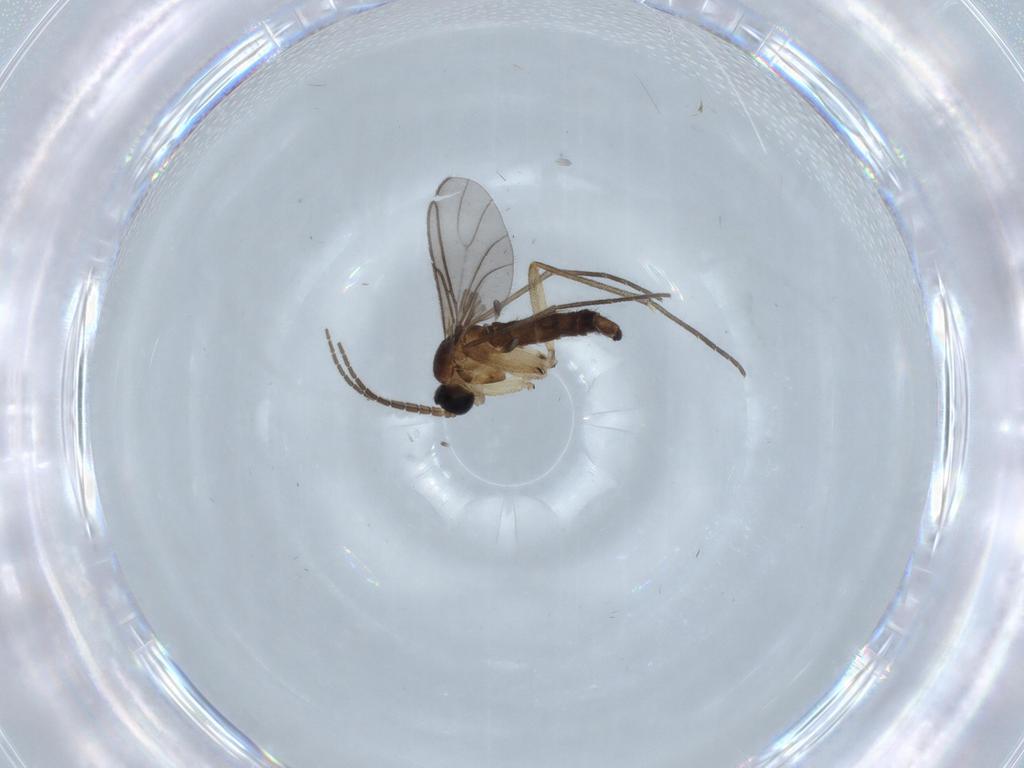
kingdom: Animalia
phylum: Arthropoda
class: Insecta
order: Diptera
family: Sciaridae
